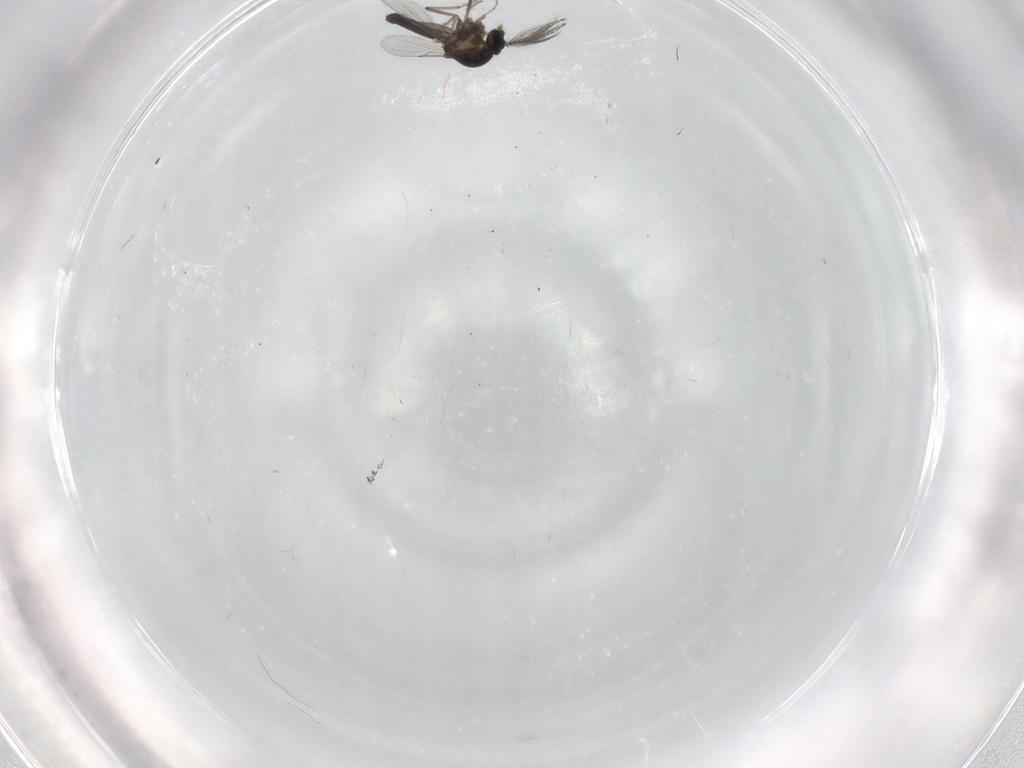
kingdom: Animalia
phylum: Arthropoda
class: Insecta
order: Diptera
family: Ceratopogonidae
